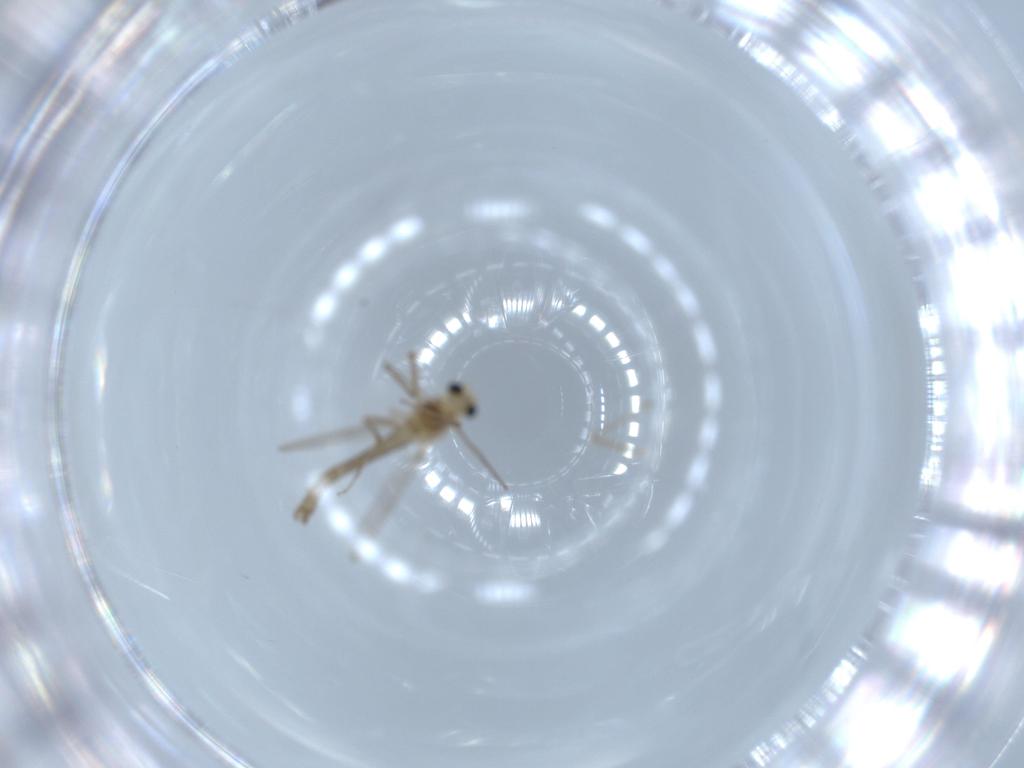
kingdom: Animalia
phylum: Arthropoda
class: Insecta
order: Diptera
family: Chironomidae
